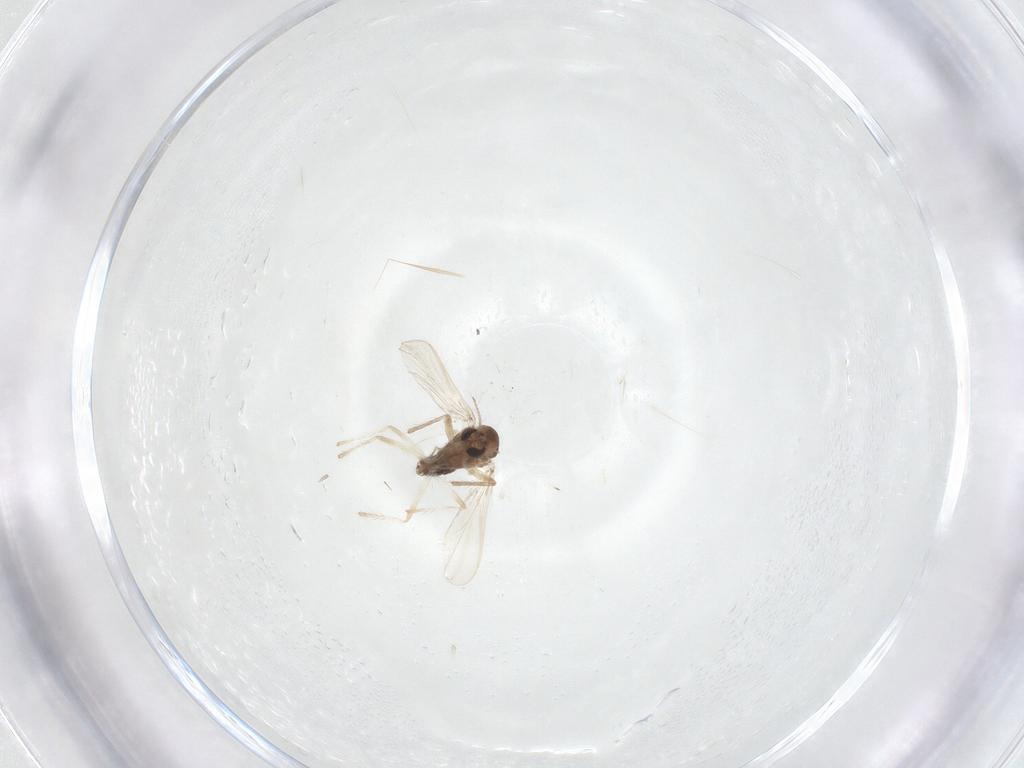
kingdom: Animalia
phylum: Arthropoda
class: Insecta
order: Diptera
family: Chironomidae
